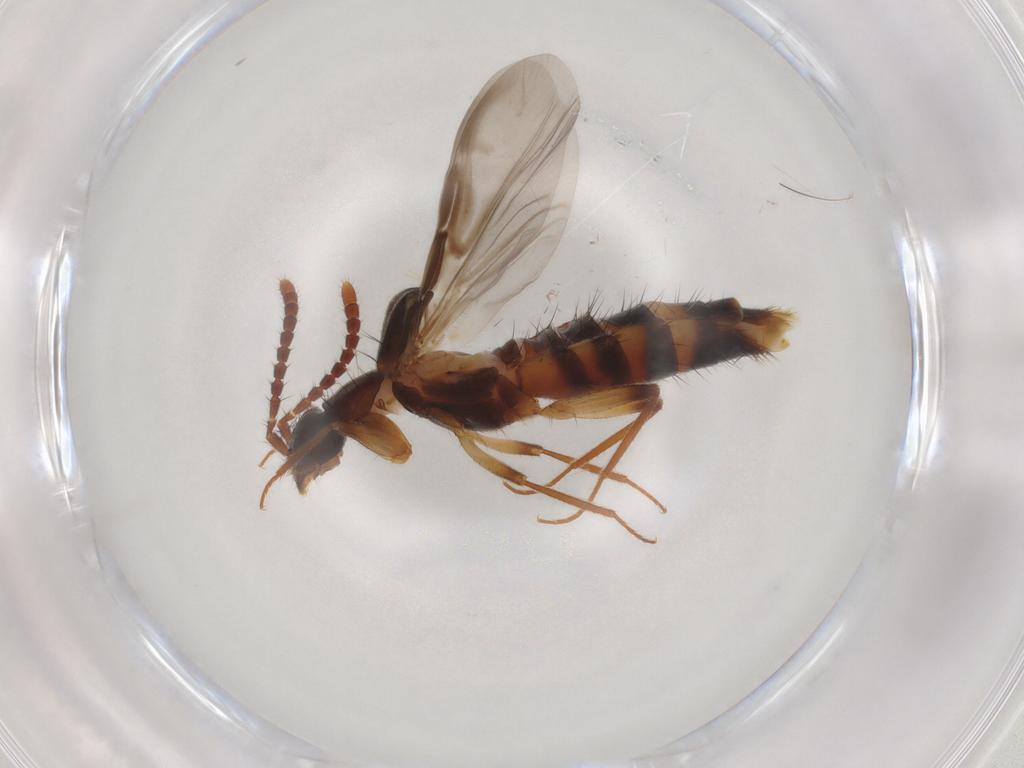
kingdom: Animalia
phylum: Arthropoda
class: Insecta
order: Coleoptera
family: Staphylinidae
